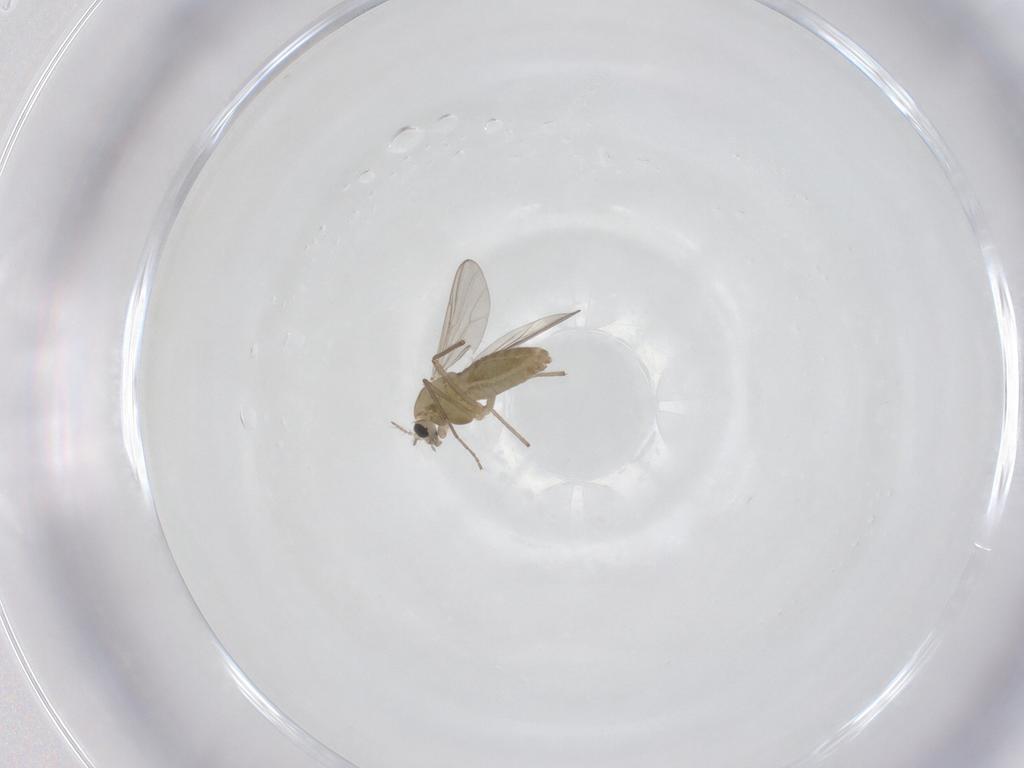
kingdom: Animalia
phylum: Arthropoda
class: Insecta
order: Diptera
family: Chironomidae
